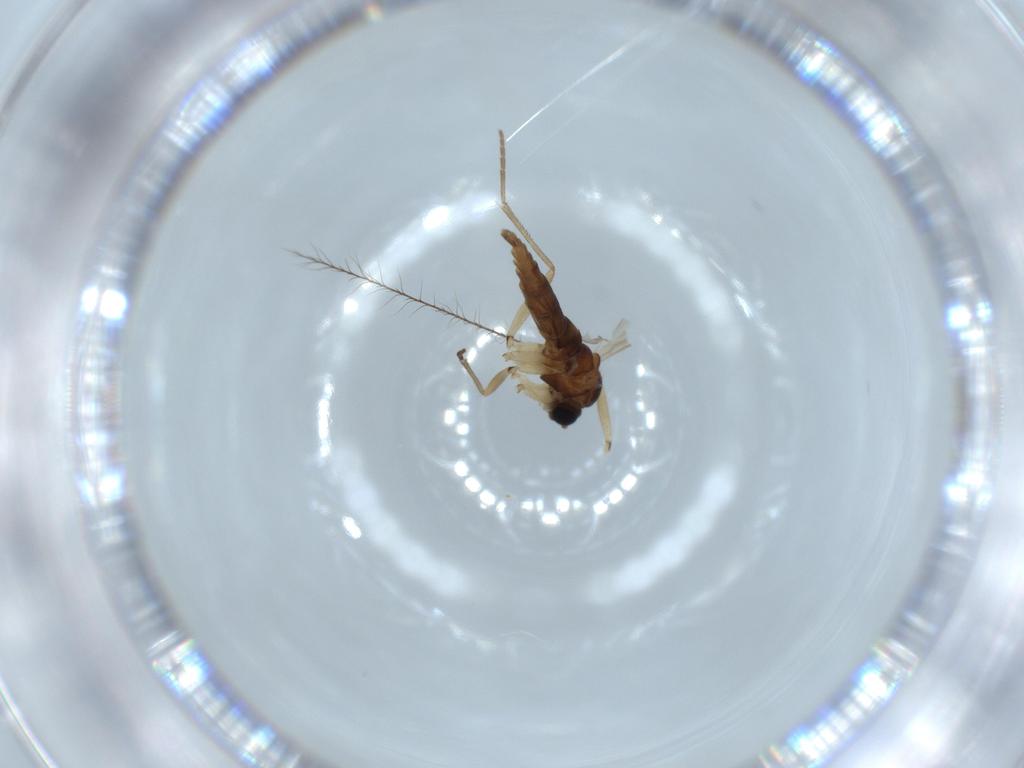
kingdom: Animalia
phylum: Arthropoda
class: Insecta
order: Diptera
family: Sciaridae
